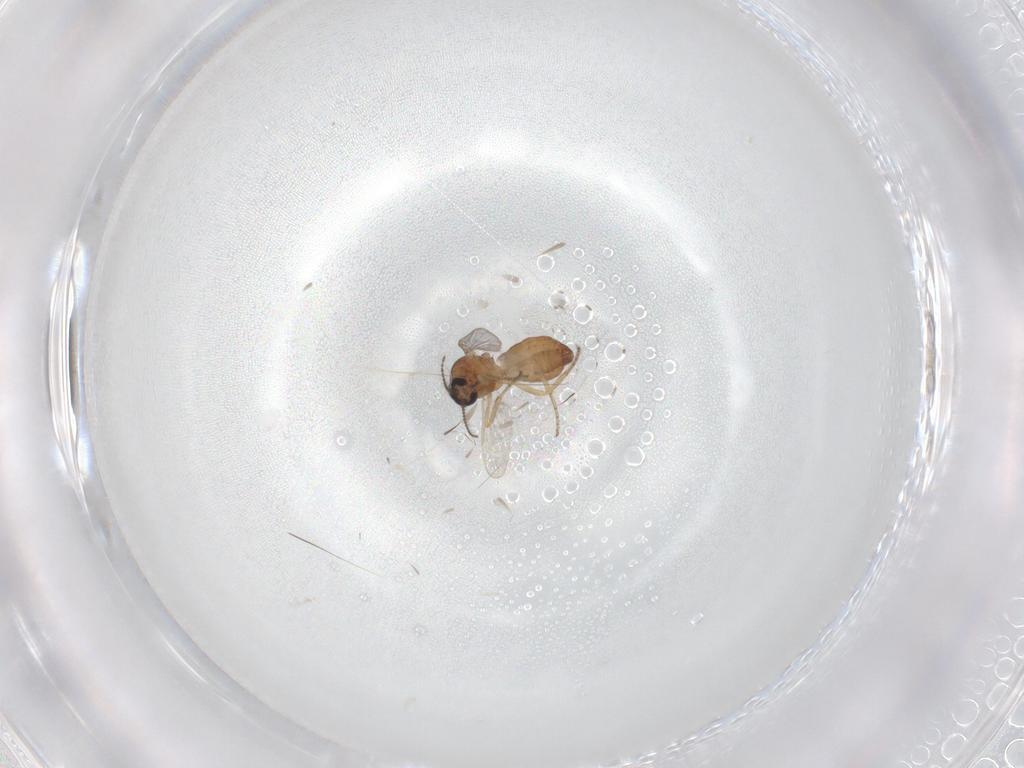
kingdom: Animalia
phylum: Arthropoda
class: Insecta
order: Diptera
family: Ceratopogonidae
